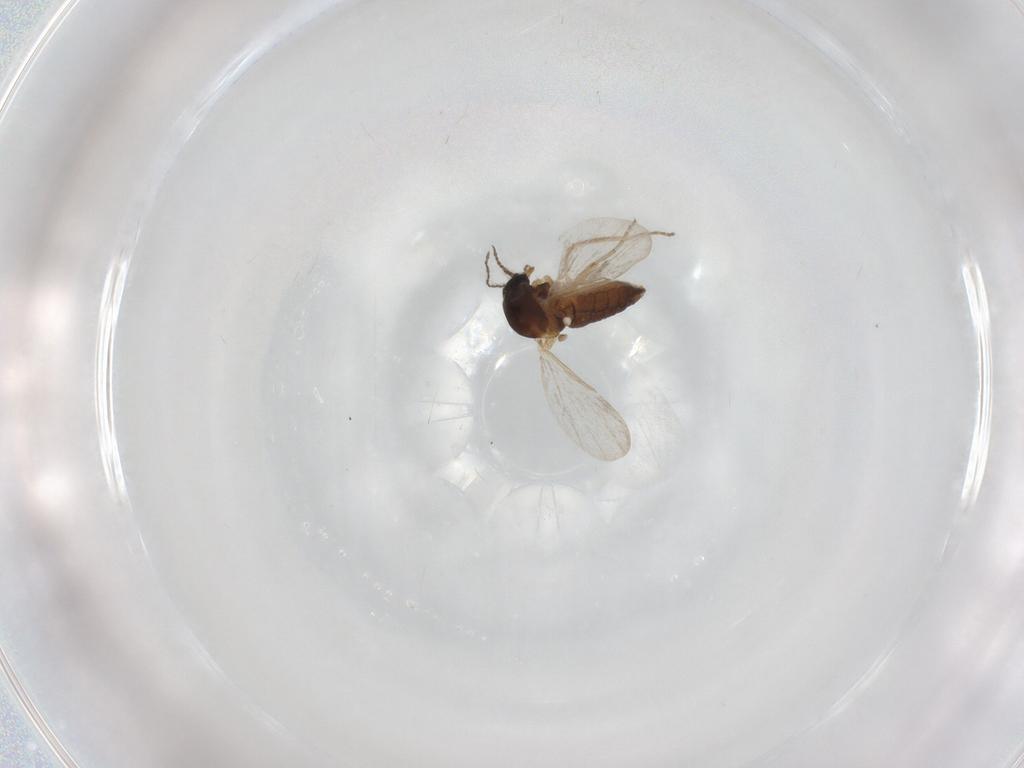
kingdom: Animalia
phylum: Arthropoda
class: Insecta
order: Diptera
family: Ceratopogonidae
